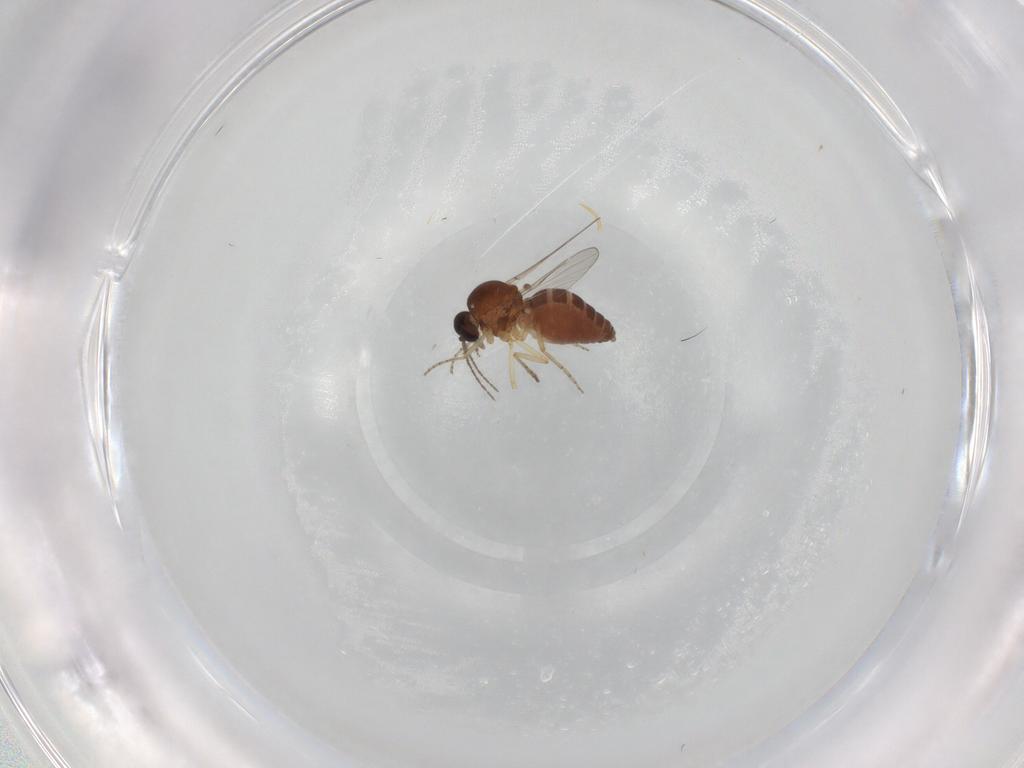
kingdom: Animalia
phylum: Arthropoda
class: Insecta
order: Diptera
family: Ceratopogonidae
